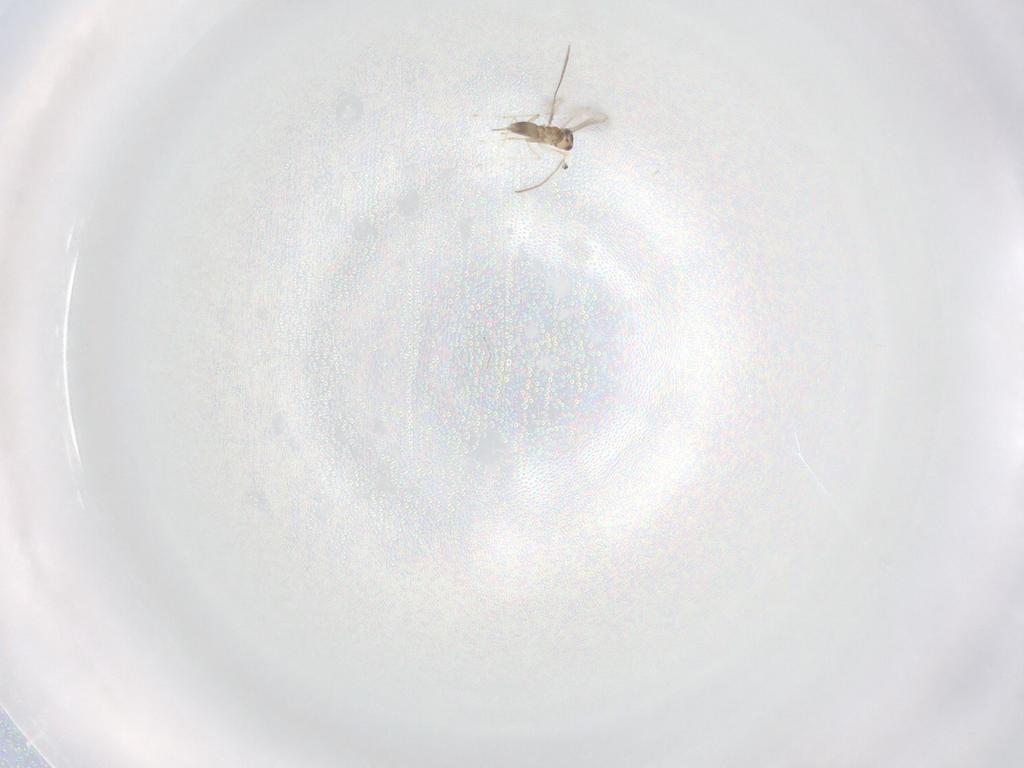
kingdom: Animalia
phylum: Arthropoda
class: Insecta
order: Hymenoptera
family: Mymaridae
